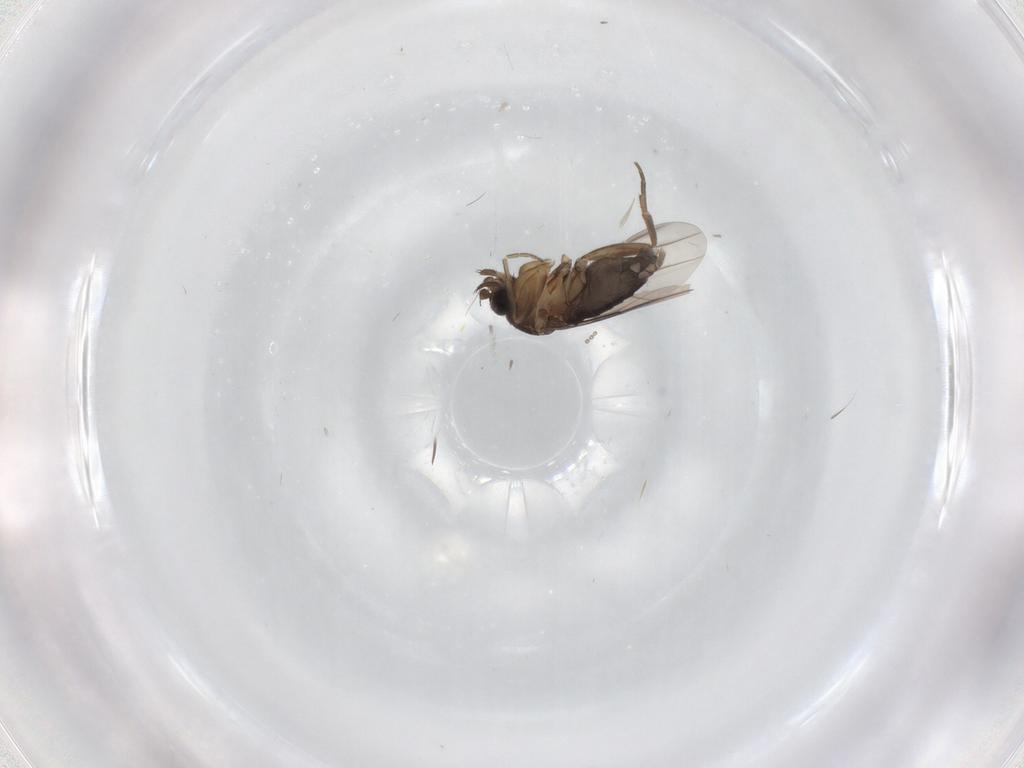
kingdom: Animalia
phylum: Arthropoda
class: Insecta
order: Diptera
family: Phoridae
